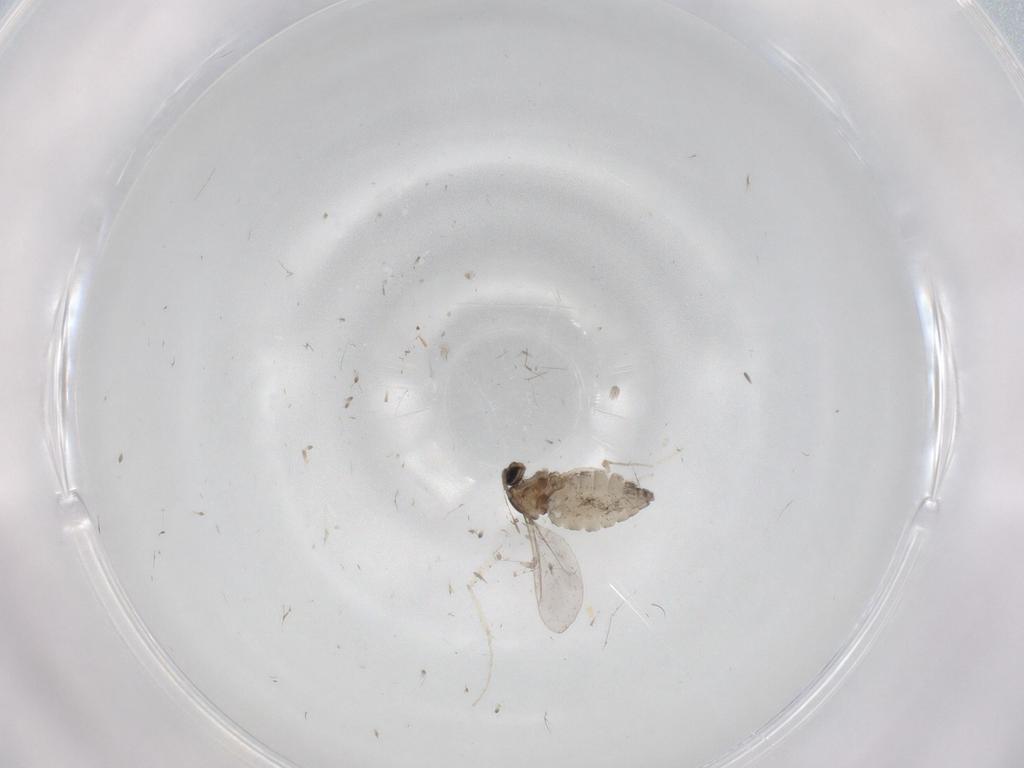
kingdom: Animalia
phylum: Arthropoda
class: Insecta
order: Diptera
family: Cecidomyiidae
